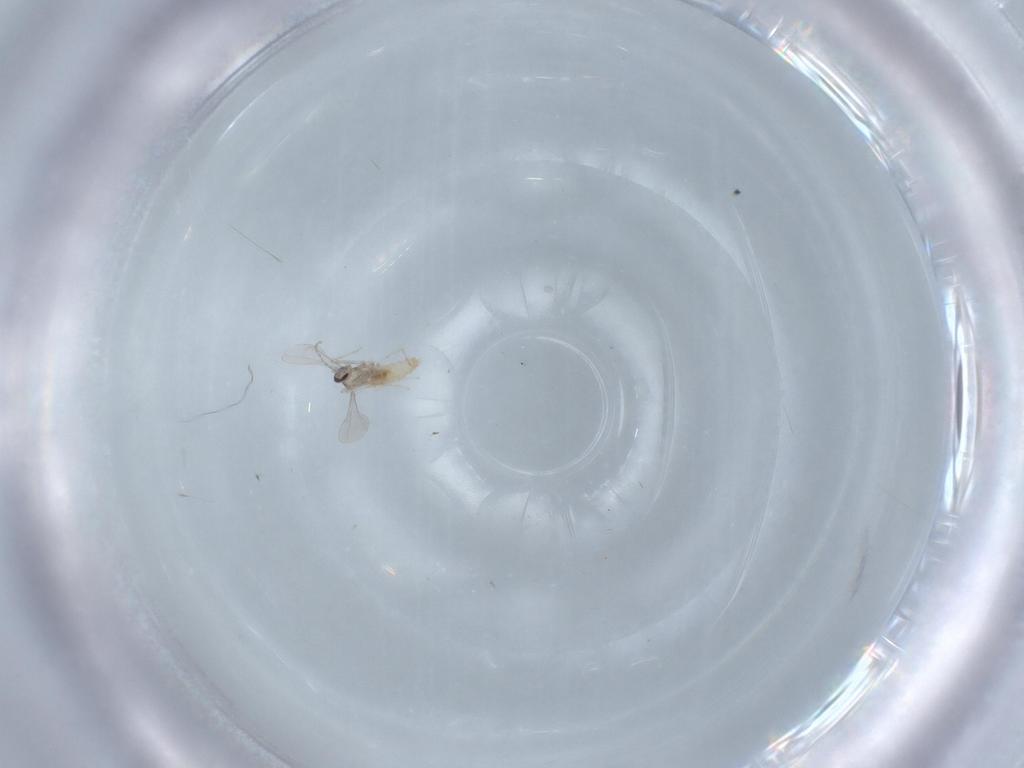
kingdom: Animalia
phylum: Arthropoda
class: Insecta
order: Diptera
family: Cecidomyiidae
